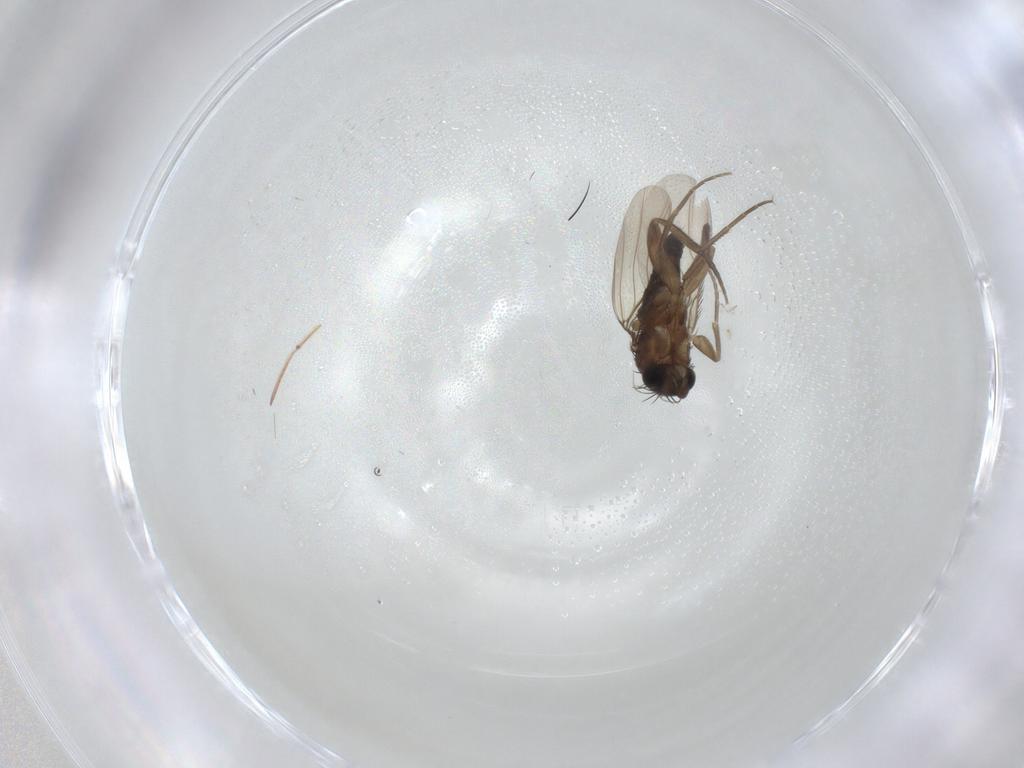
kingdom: Animalia
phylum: Arthropoda
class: Insecta
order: Diptera
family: Phoridae
